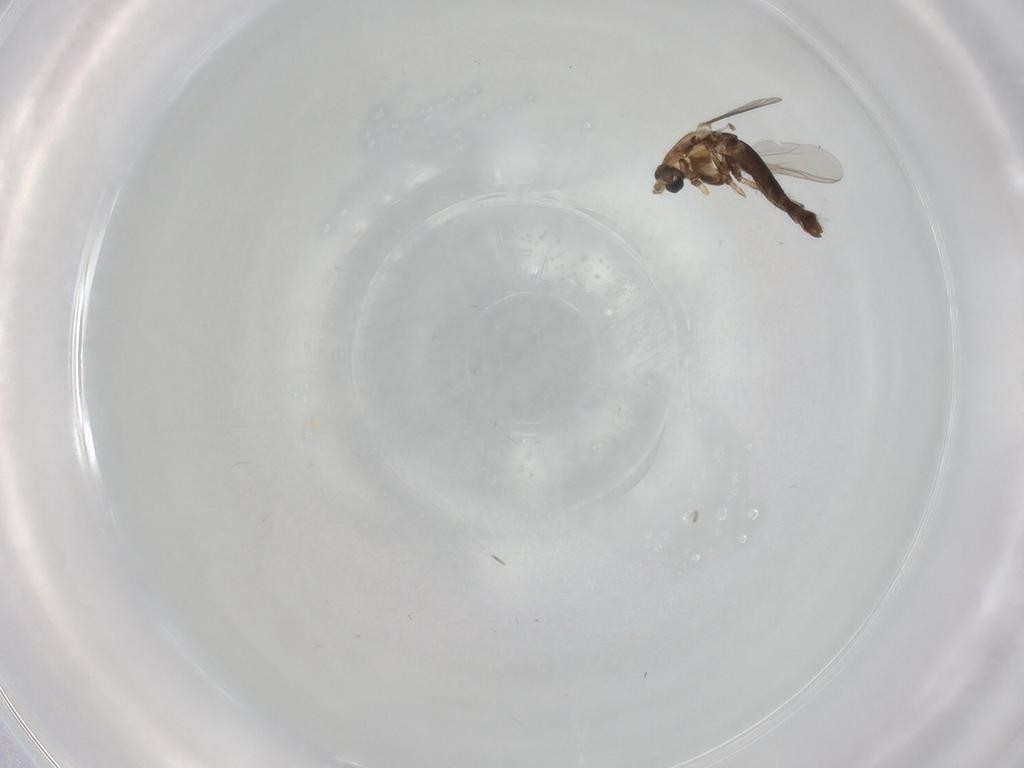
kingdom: Animalia
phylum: Arthropoda
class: Insecta
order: Diptera
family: Chironomidae
